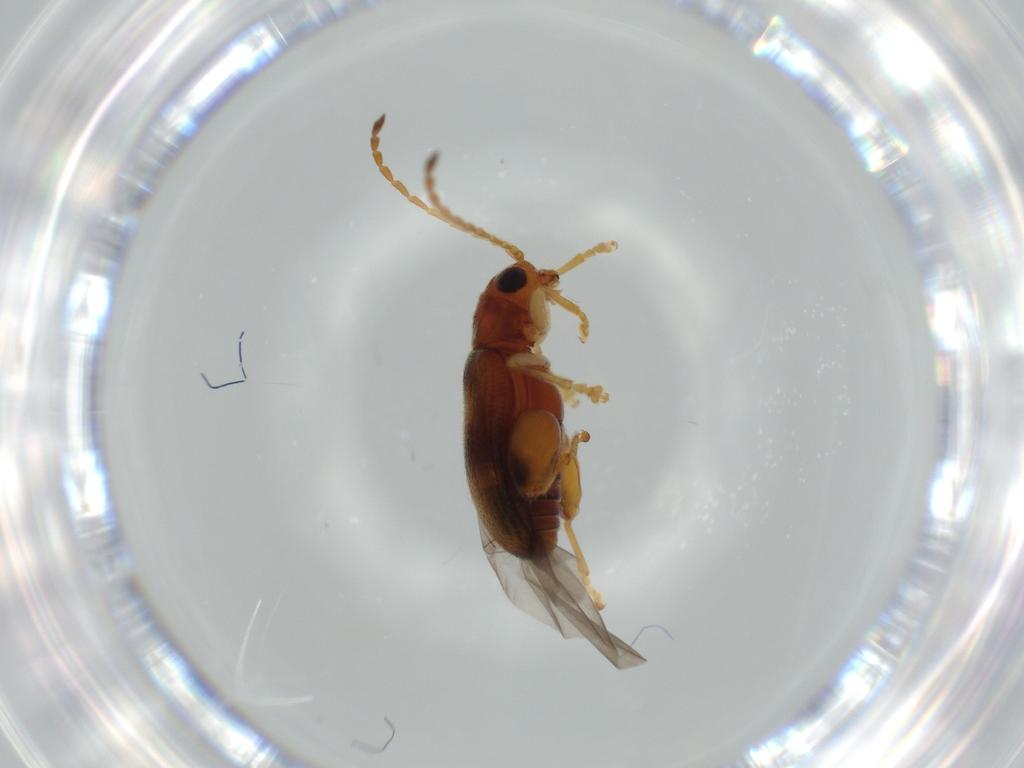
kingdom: Animalia
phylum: Arthropoda
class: Insecta
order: Coleoptera
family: Chrysomelidae
